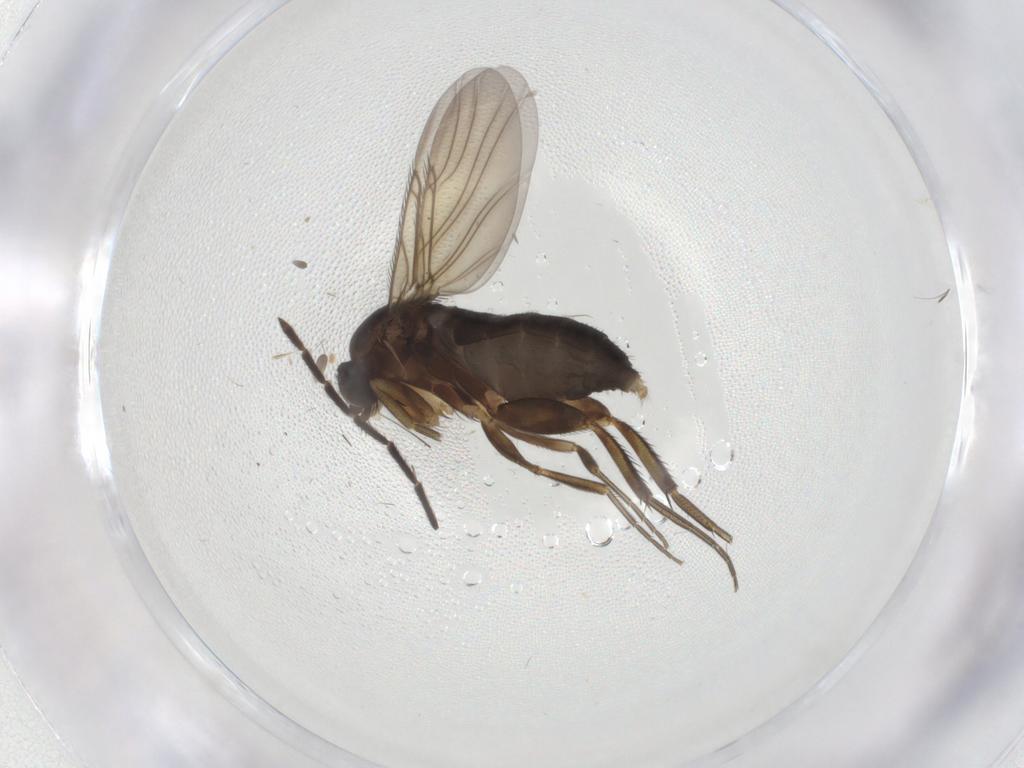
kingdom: Animalia
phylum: Arthropoda
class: Insecta
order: Diptera
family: Phoridae
